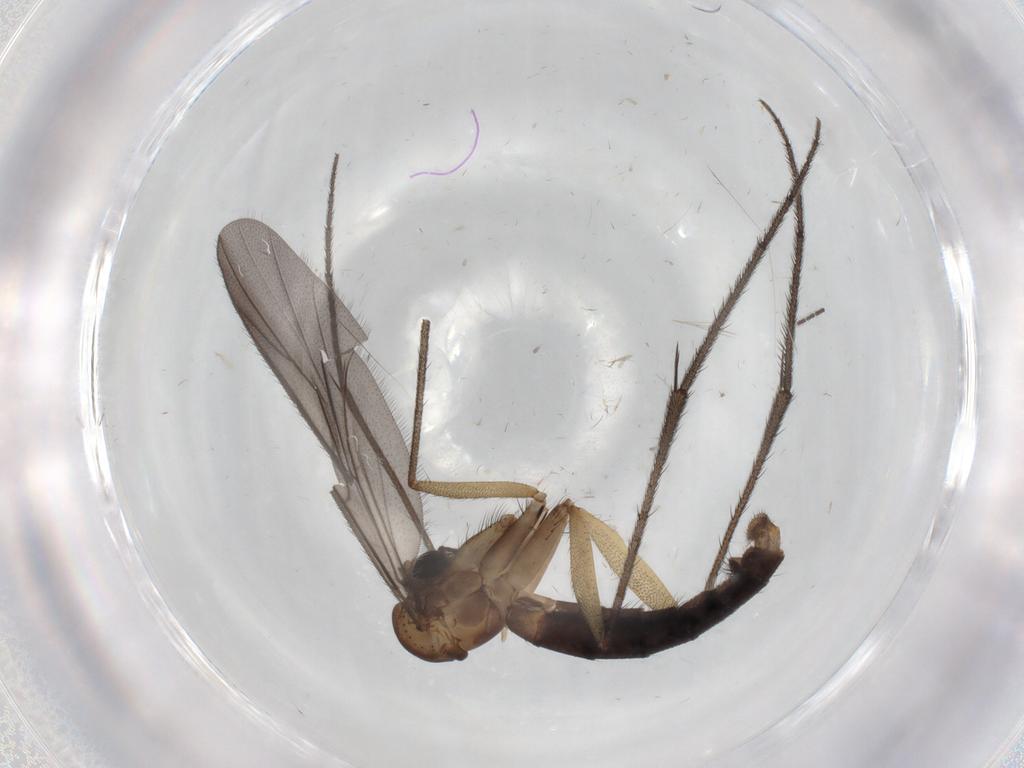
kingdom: Animalia
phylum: Arthropoda
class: Insecta
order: Diptera
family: Ditomyiidae
